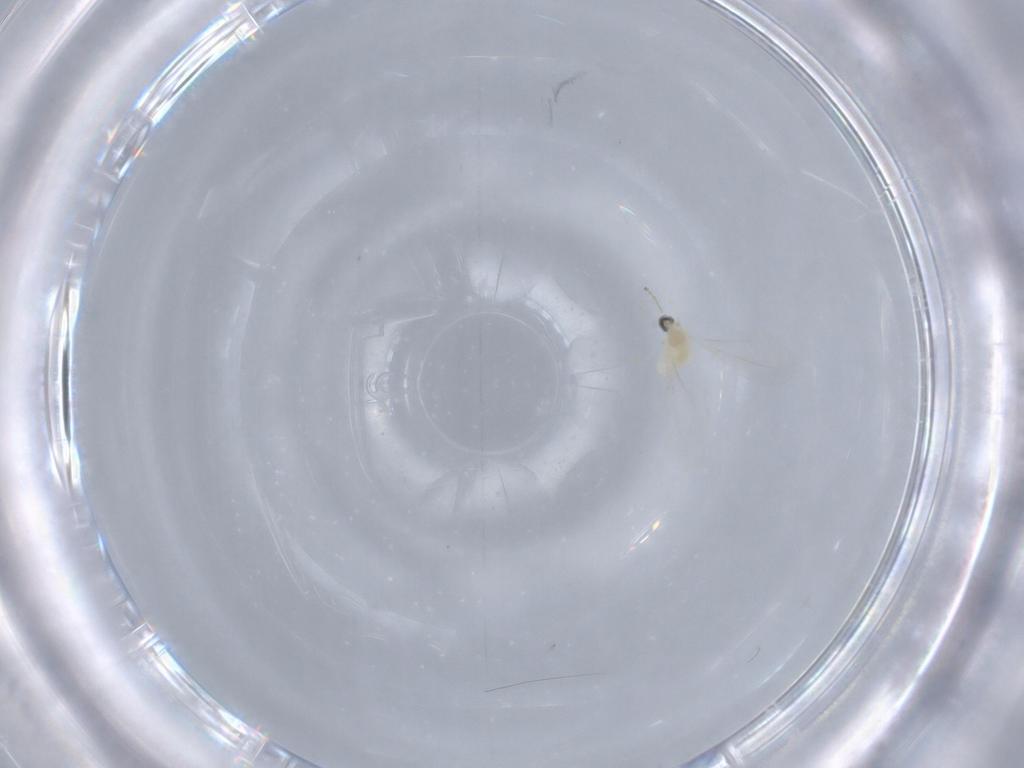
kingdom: Animalia
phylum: Arthropoda
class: Insecta
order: Diptera
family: Cecidomyiidae
